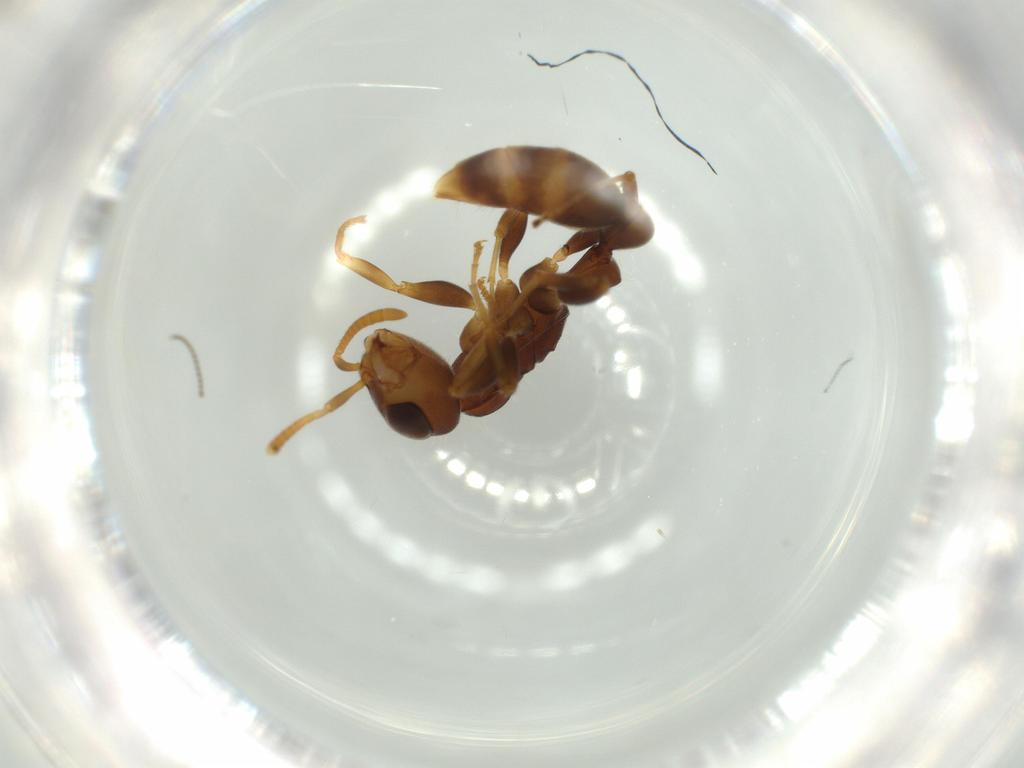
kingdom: Animalia
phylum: Arthropoda
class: Insecta
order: Hymenoptera
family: Formicidae
